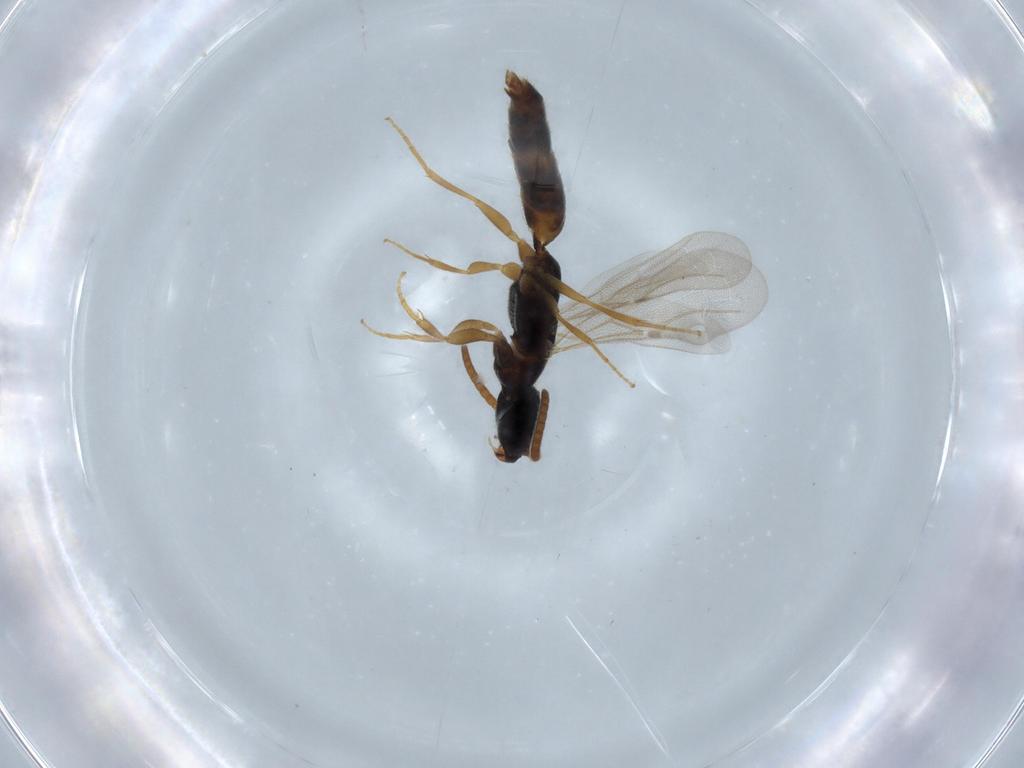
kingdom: Animalia
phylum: Arthropoda
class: Insecta
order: Hymenoptera
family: Bethylidae
